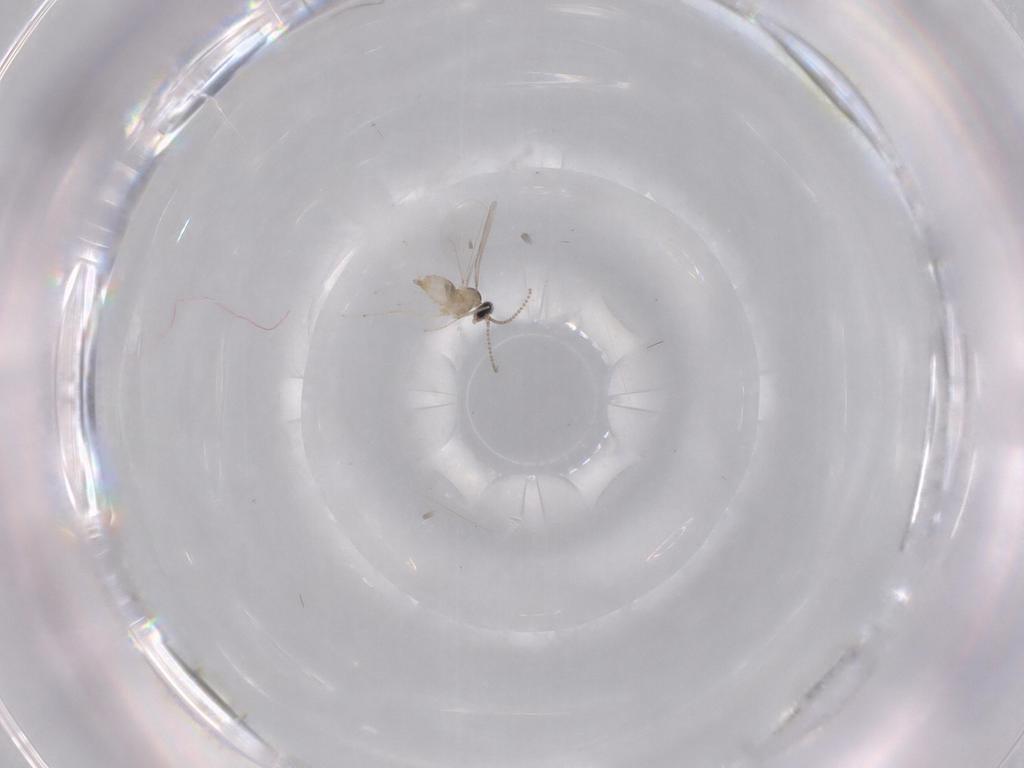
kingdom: Animalia
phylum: Arthropoda
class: Insecta
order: Diptera
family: Cecidomyiidae
